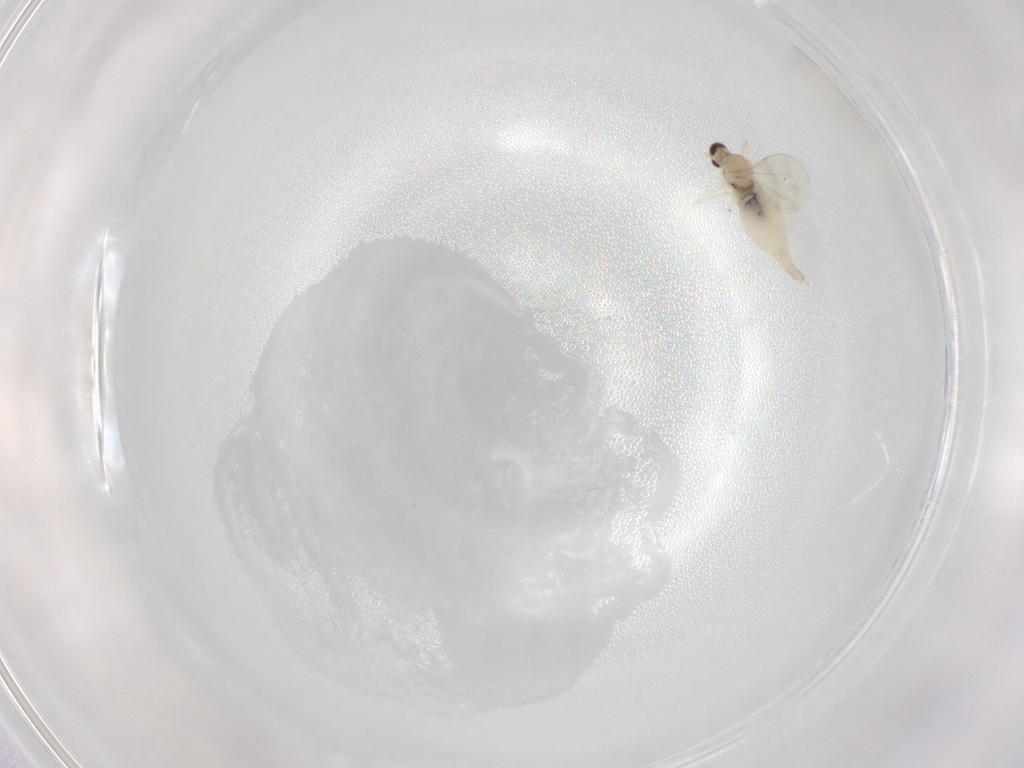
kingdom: Animalia
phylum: Arthropoda
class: Insecta
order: Diptera
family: Cecidomyiidae
